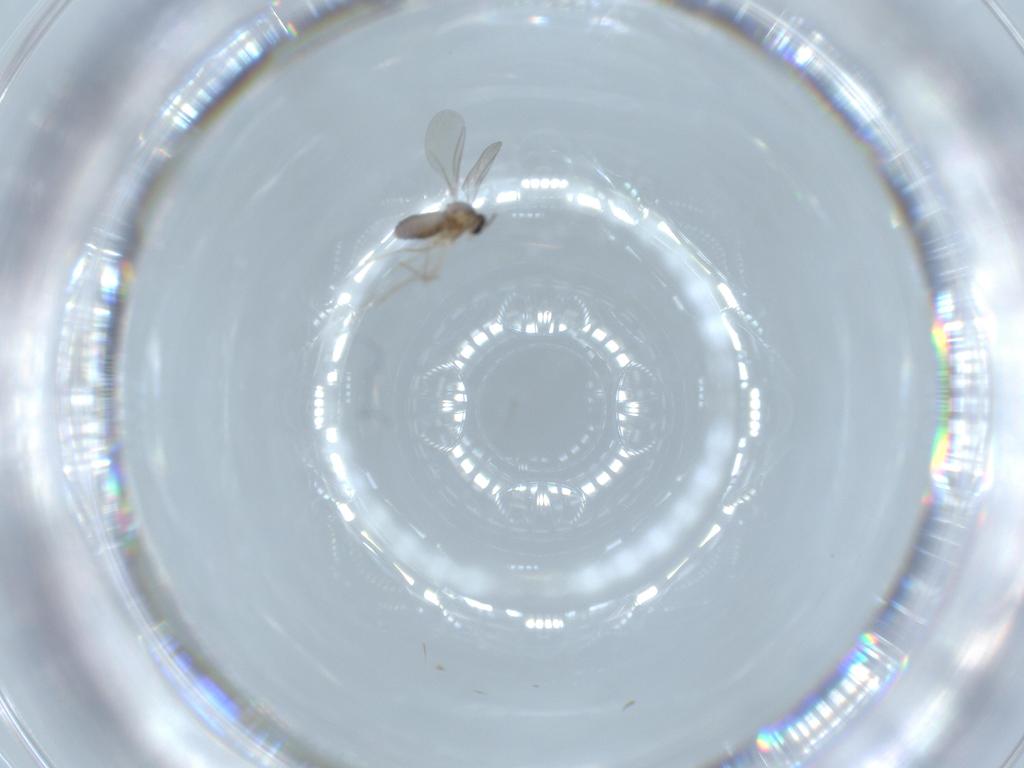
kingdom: Animalia
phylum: Arthropoda
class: Insecta
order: Diptera
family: Cecidomyiidae
